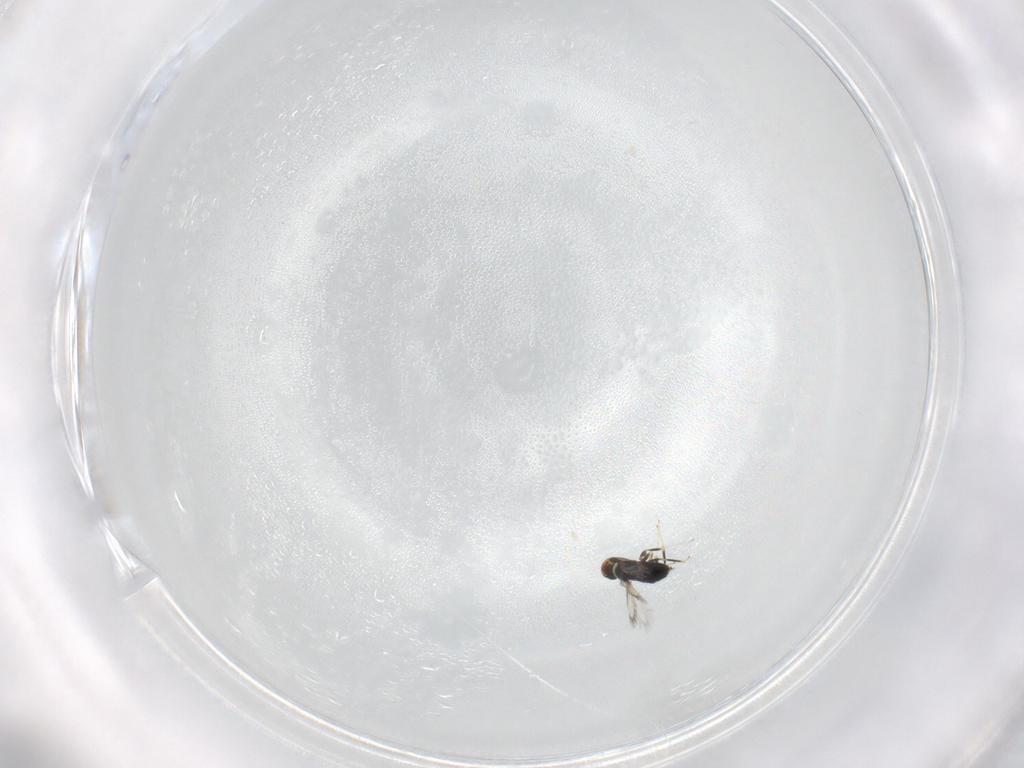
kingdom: Animalia
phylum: Arthropoda
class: Insecta
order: Hymenoptera
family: Signiphoridae
